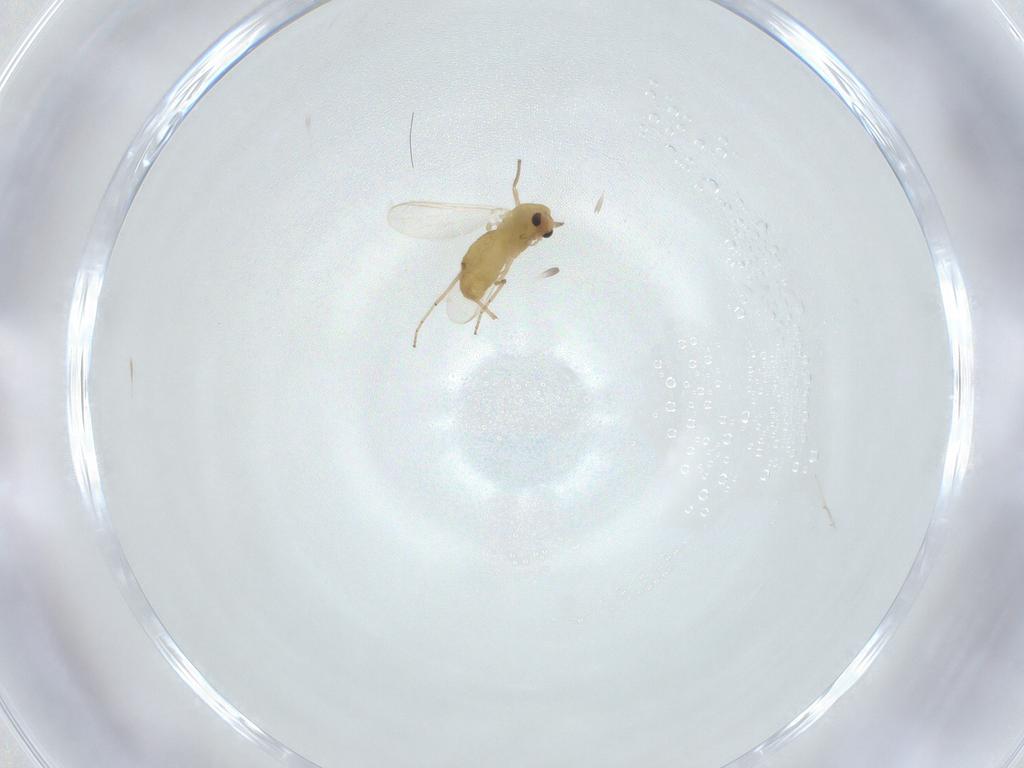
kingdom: Animalia
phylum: Arthropoda
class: Insecta
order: Diptera
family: Chironomidae
